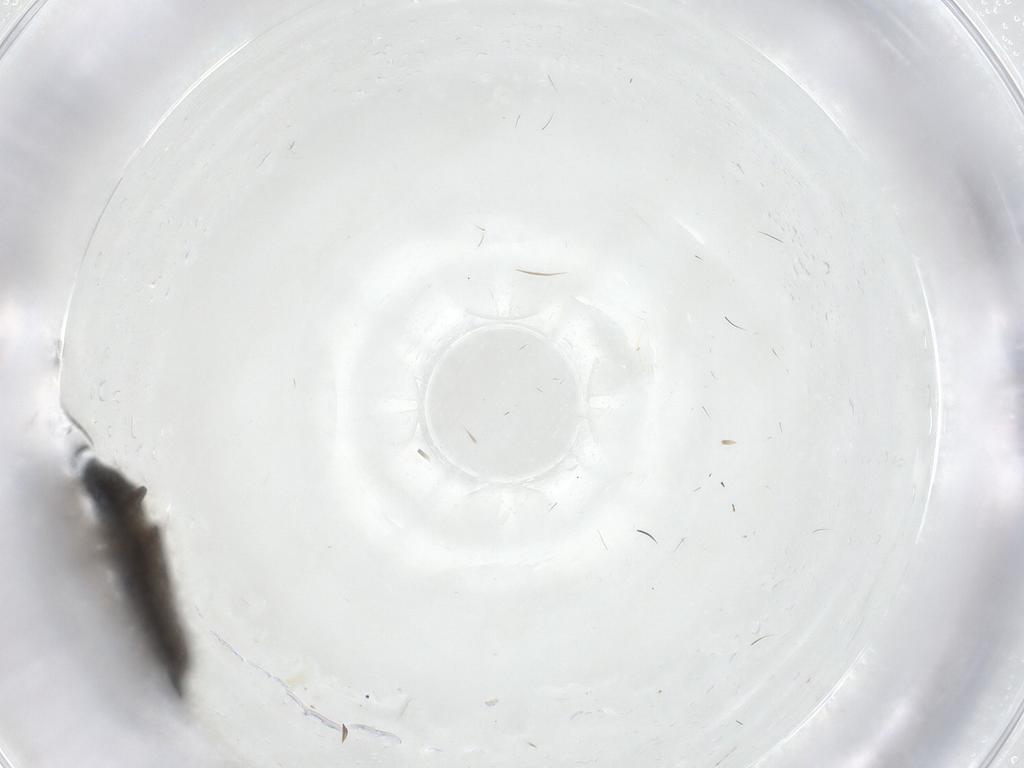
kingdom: Animalia
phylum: Arthropoda
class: Insecta
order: Diptera
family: Sciaridae
